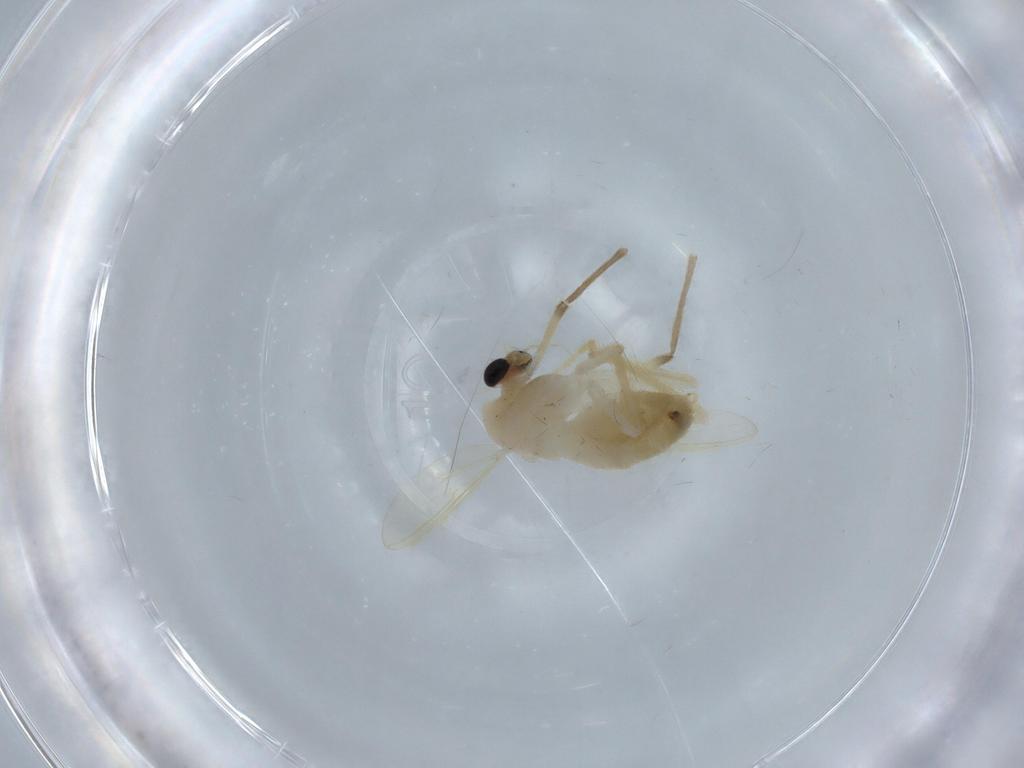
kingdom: Animalia
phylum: Arthropoda
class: Insecta
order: Diptera
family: Chironomidae
